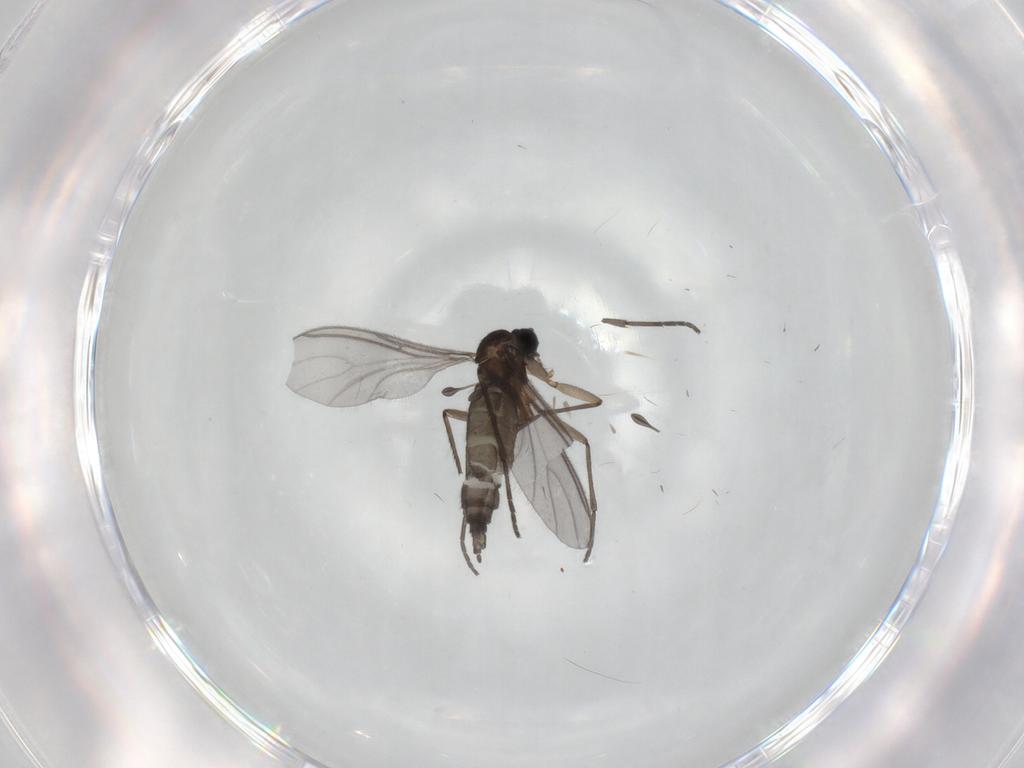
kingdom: Animalia
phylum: Arthropoda
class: Insecta
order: Diptera
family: Sciaridae
